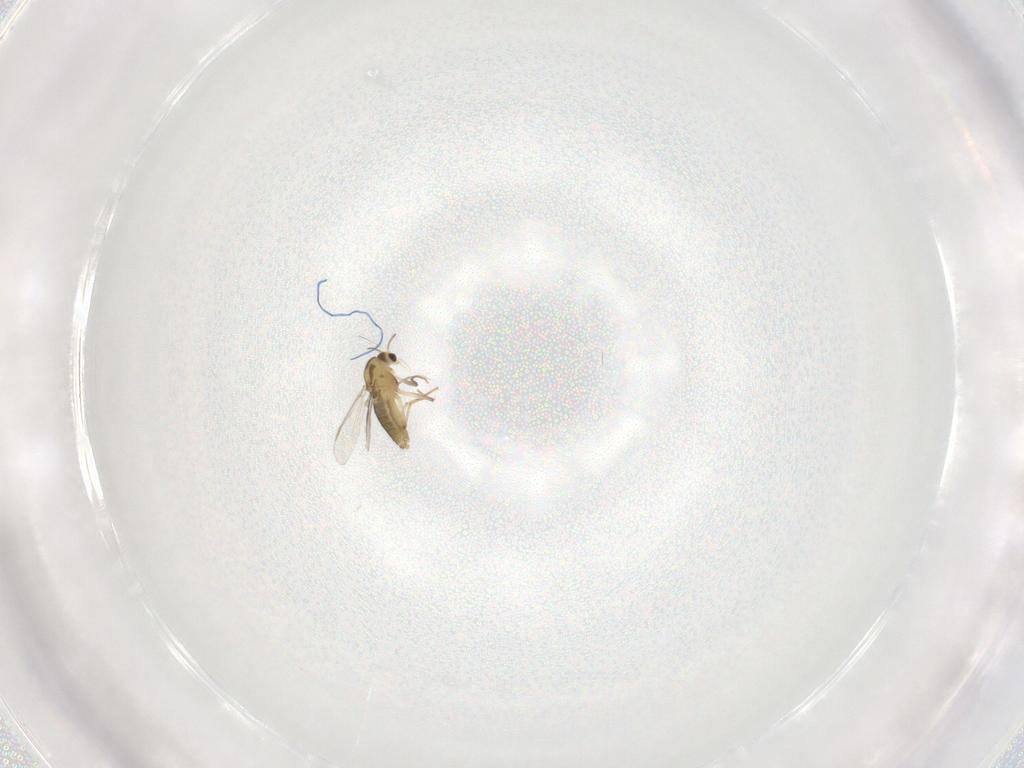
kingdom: Animalia
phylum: Arthropoda
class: Insecta
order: Diptera
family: Chironomidae
